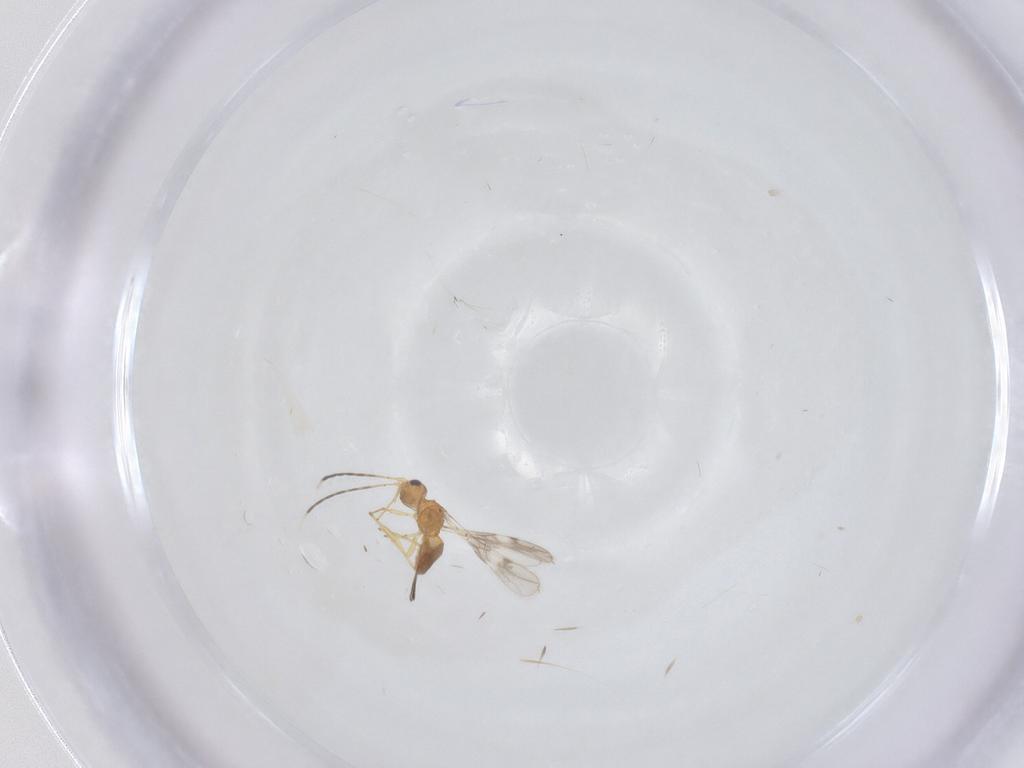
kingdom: Animalia
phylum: Arthropoda
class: Insecta
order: Hymenoptera
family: Braconidae
